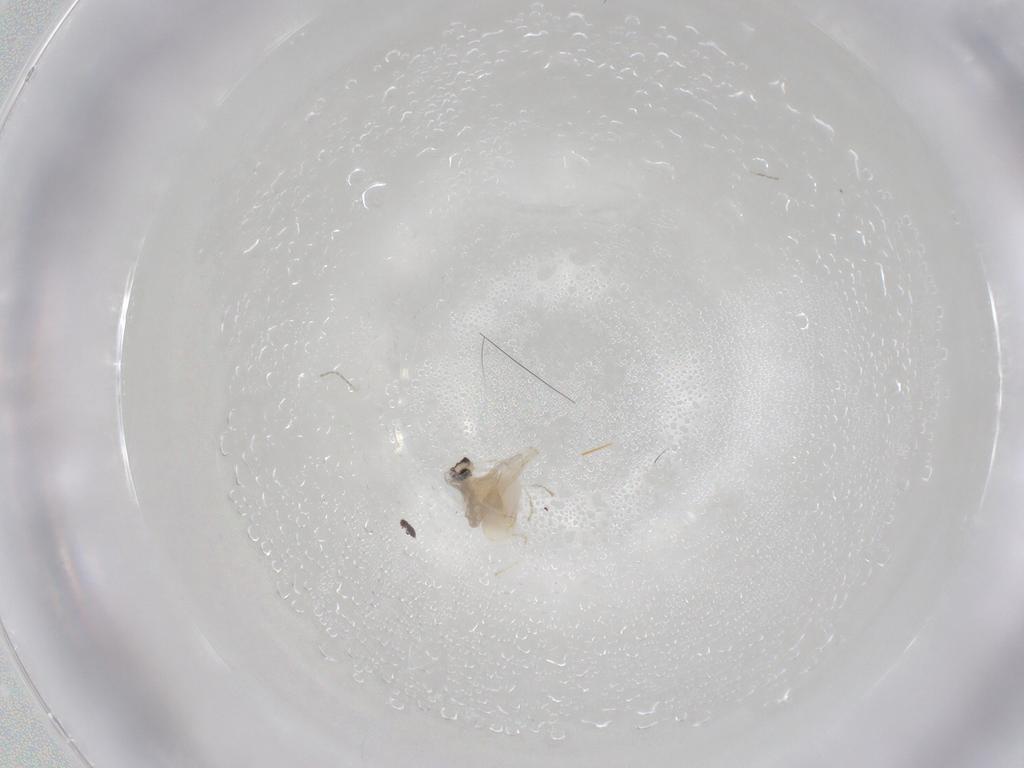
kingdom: Animalia
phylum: Arthropoda
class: Insecta
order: Diptera
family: Cecidomyiidae
